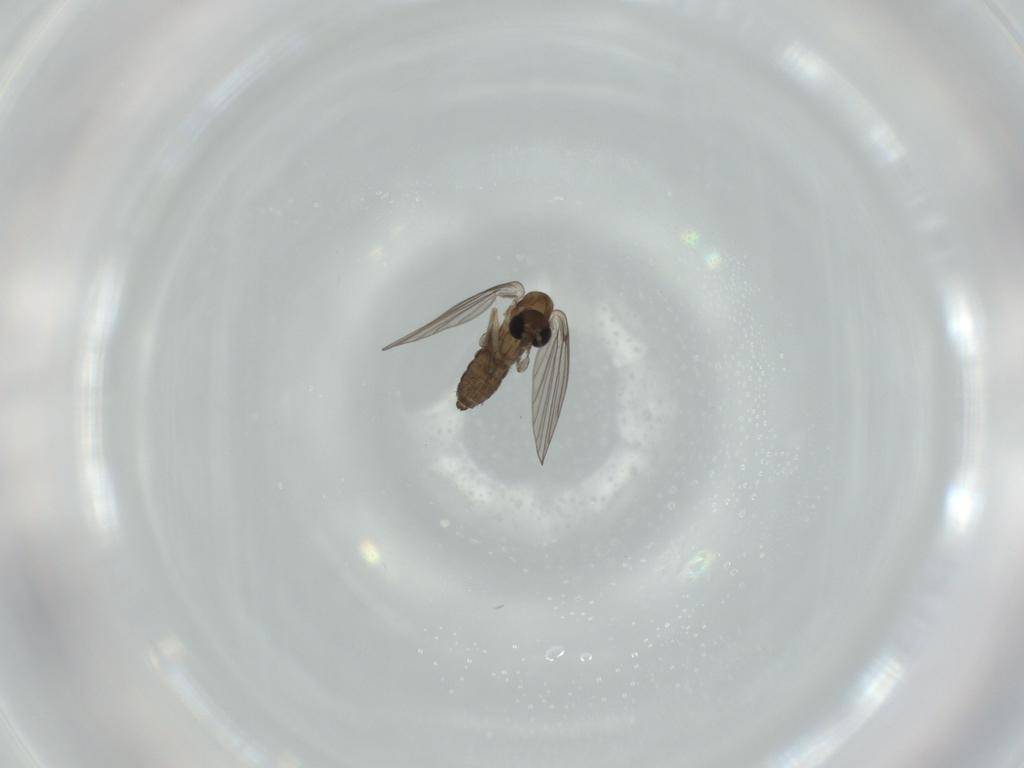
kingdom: Animalia
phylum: Arthropoda
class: Insecta
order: Diptera
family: Psychodidae
